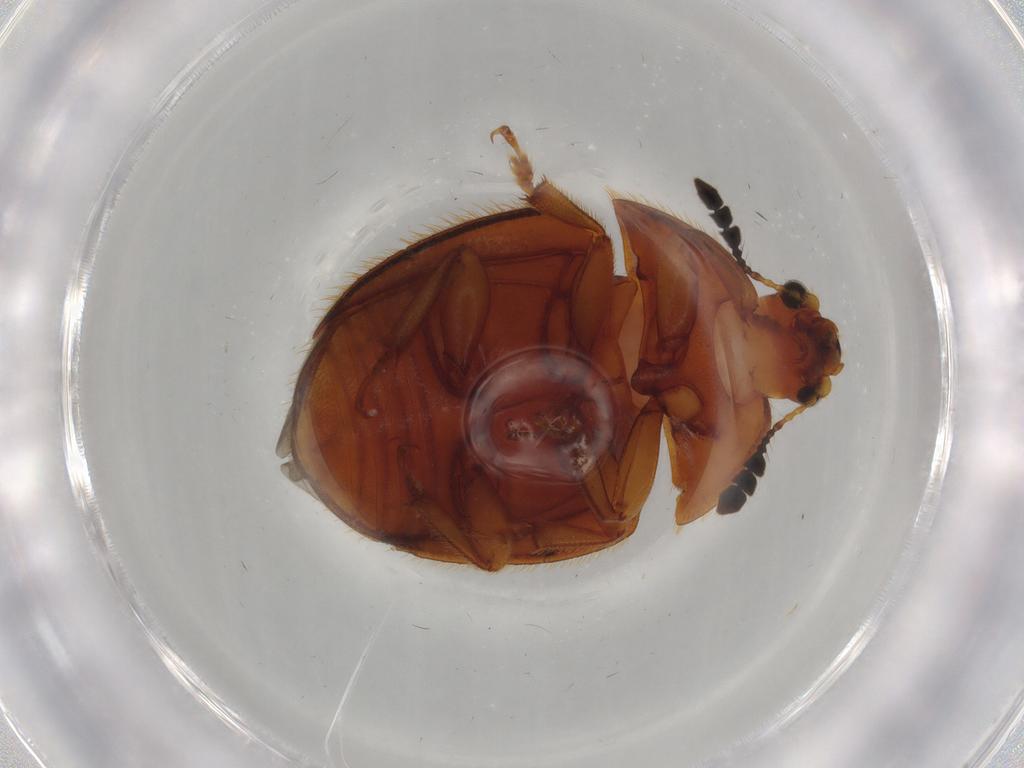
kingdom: Animalia
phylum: Arthropoda
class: Insecta
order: Coleoptera
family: Nitidulidae
